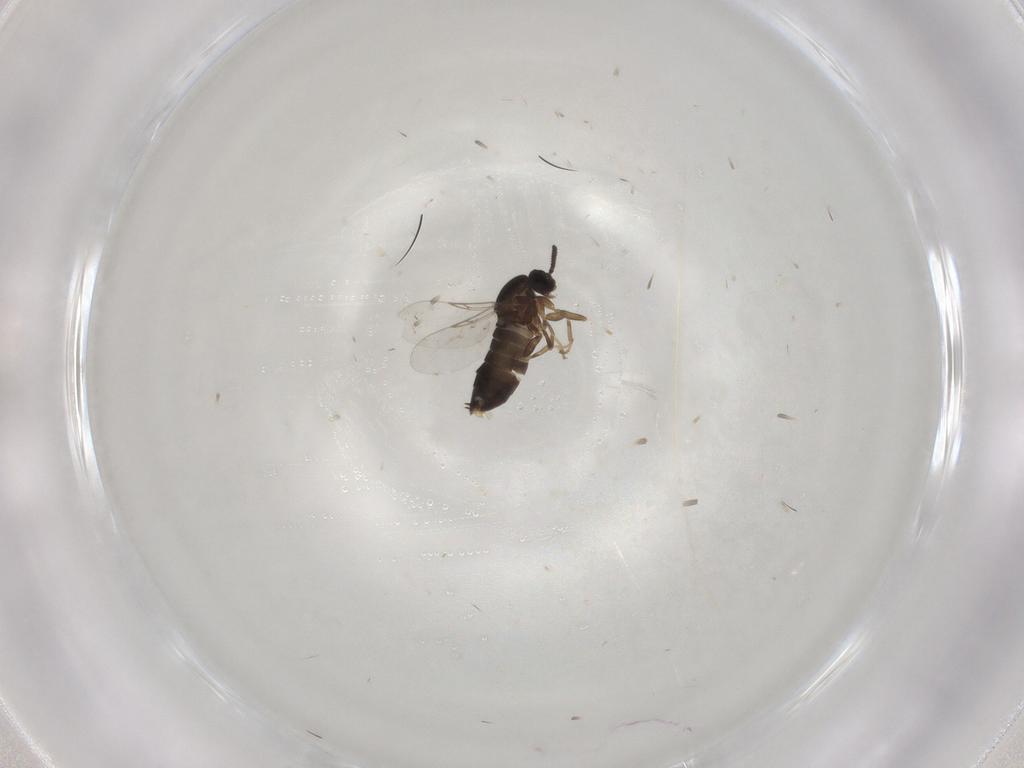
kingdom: Animalia
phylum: Arthropoda
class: Insecta
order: Diptera
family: Scatopsidae
